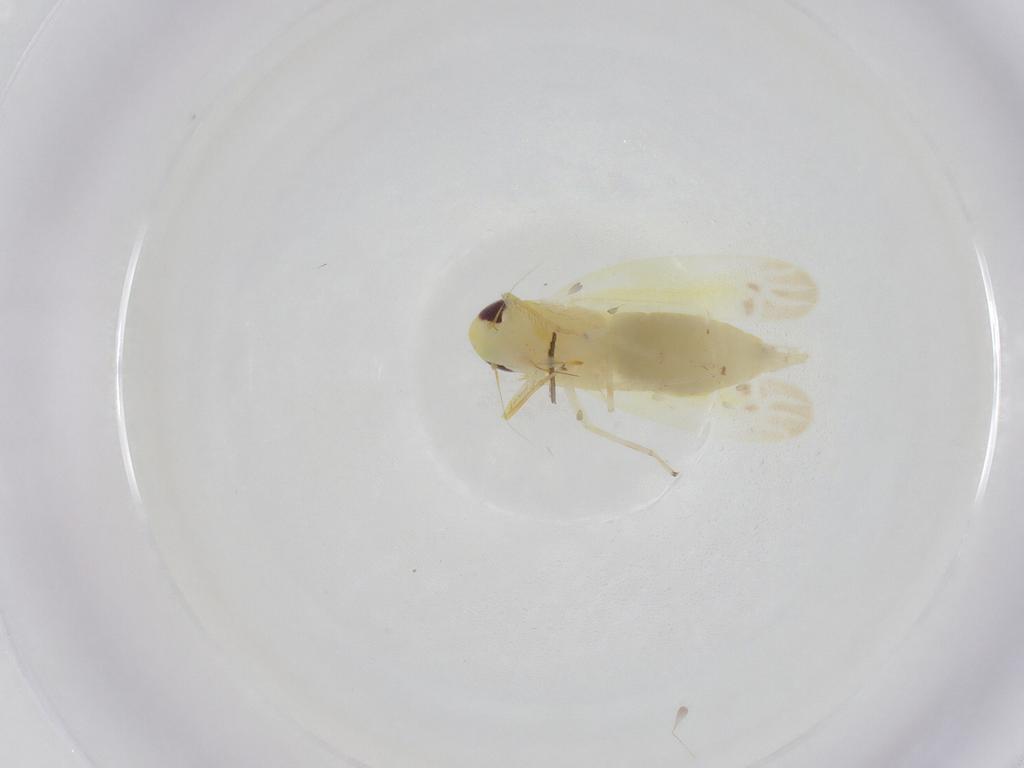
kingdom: Animalia
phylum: Arthropoda
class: Insecta
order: Hemiptera
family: Cicadellidae
